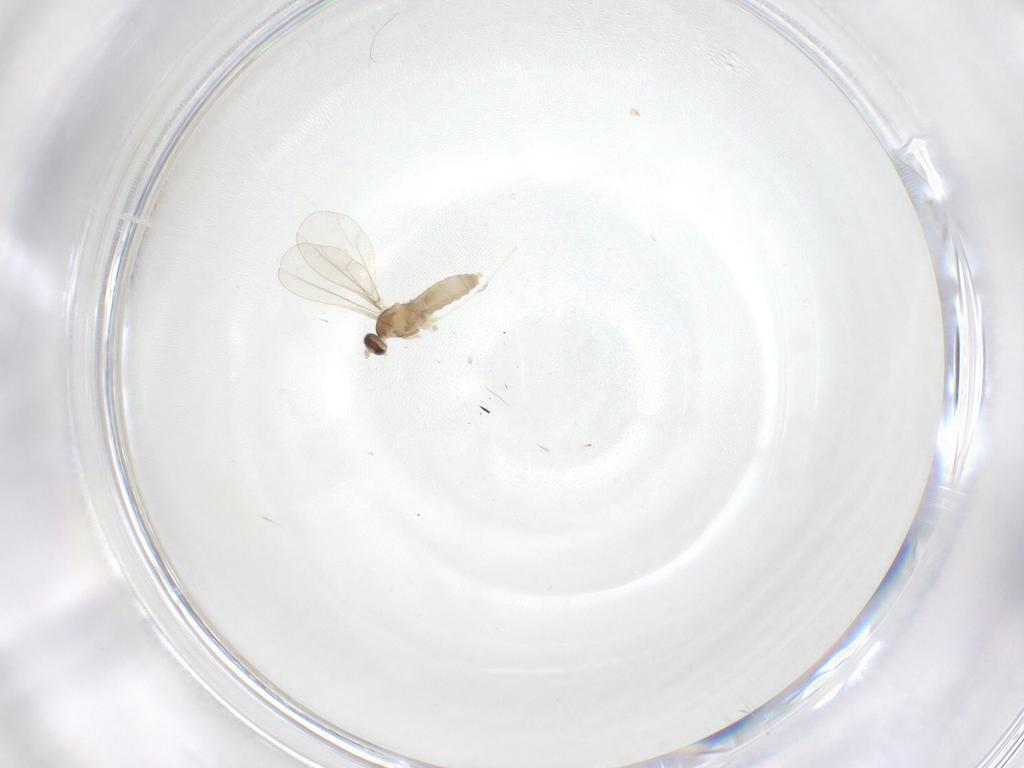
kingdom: Animalia
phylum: Arthropoda
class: Insecta
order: Diptera
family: Cecidomyiidae
